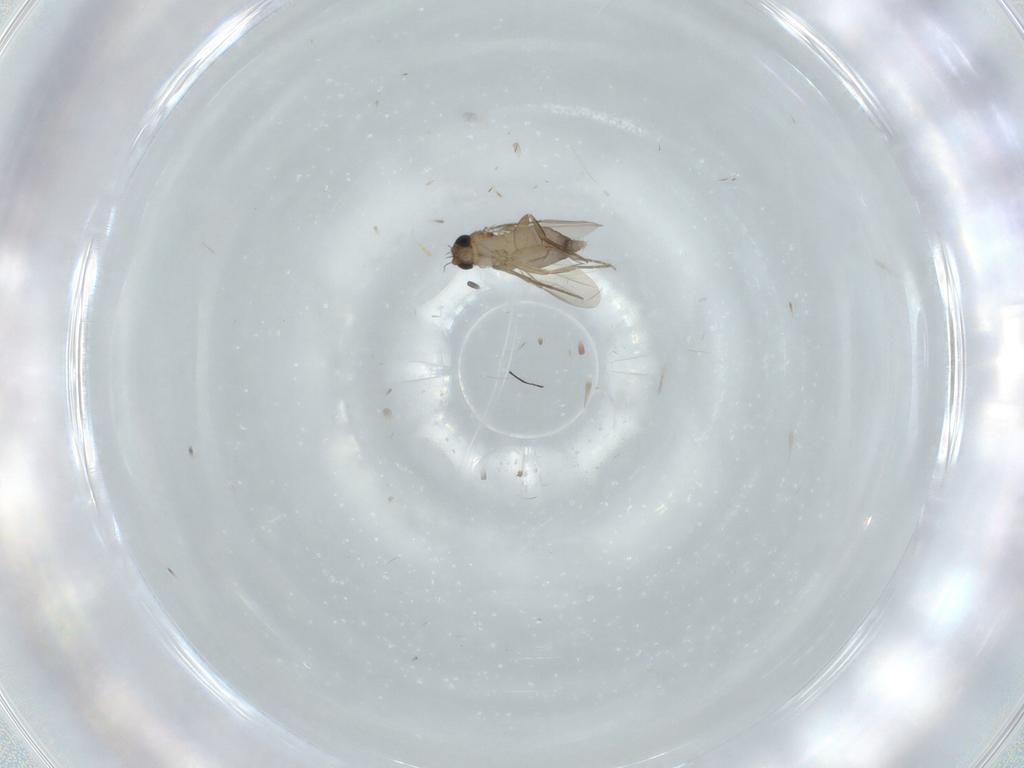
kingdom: Animalia
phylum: Arthropoda
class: Insecta
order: Diptera
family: Phoridae
